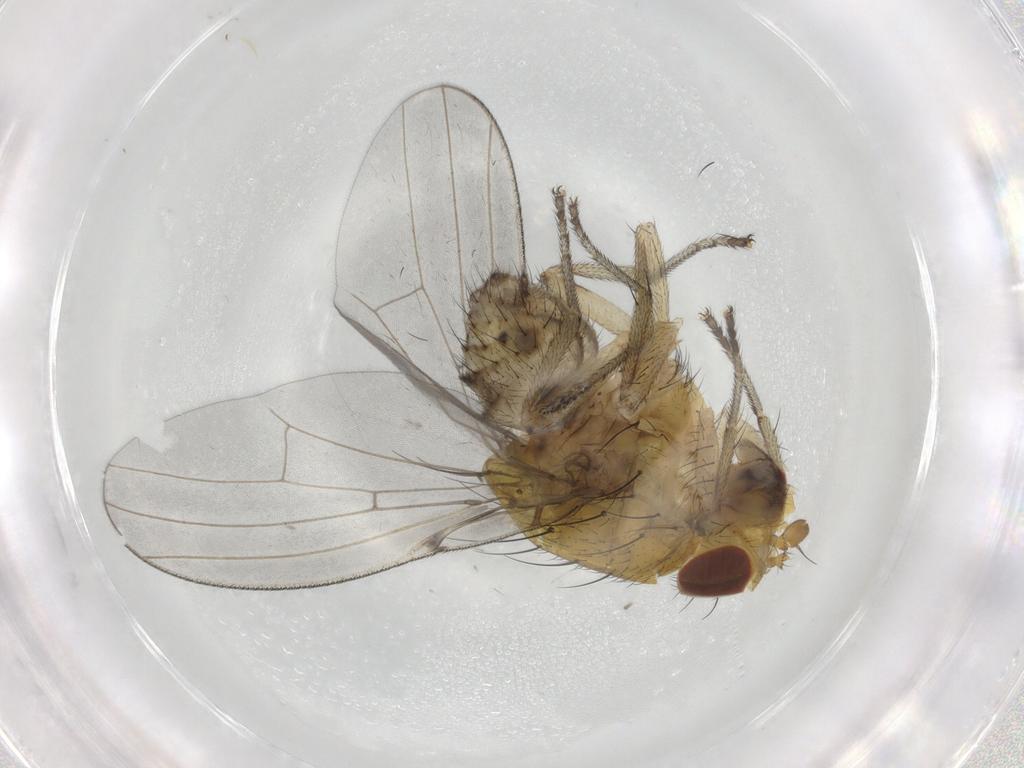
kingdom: Animalia
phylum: Arthropoda
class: Insecta
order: Diptera
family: Lauxaniidae
